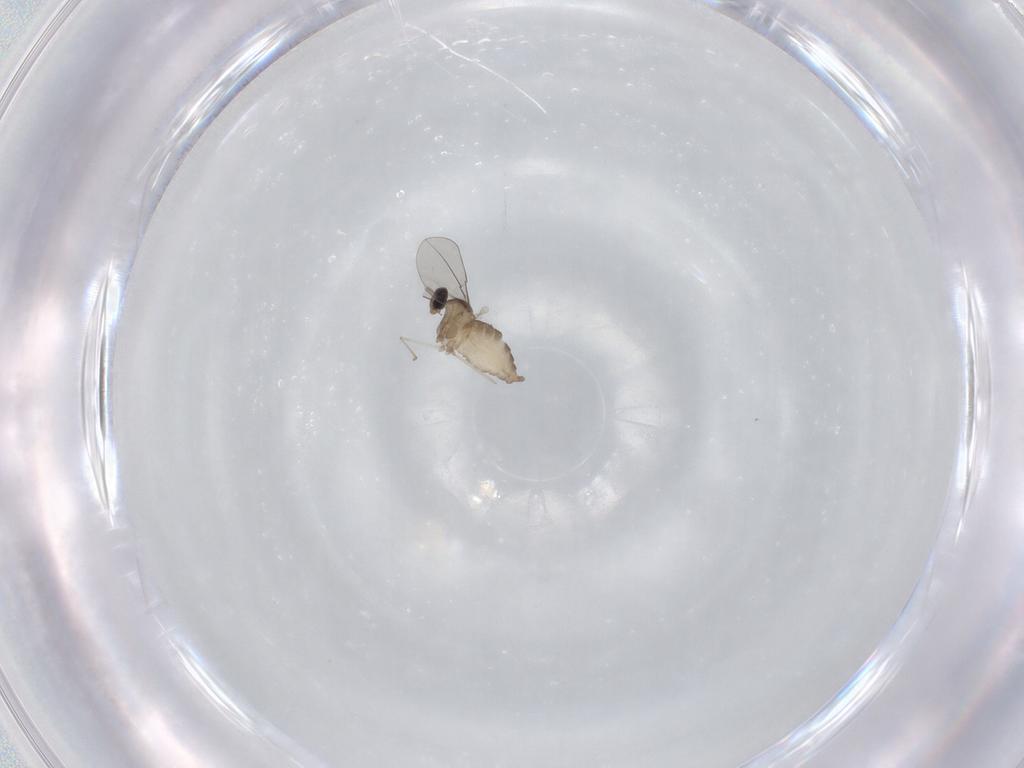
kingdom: Animalia
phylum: Arthropoda
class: Insecta
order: Diptera
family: Cecidomyiidae
